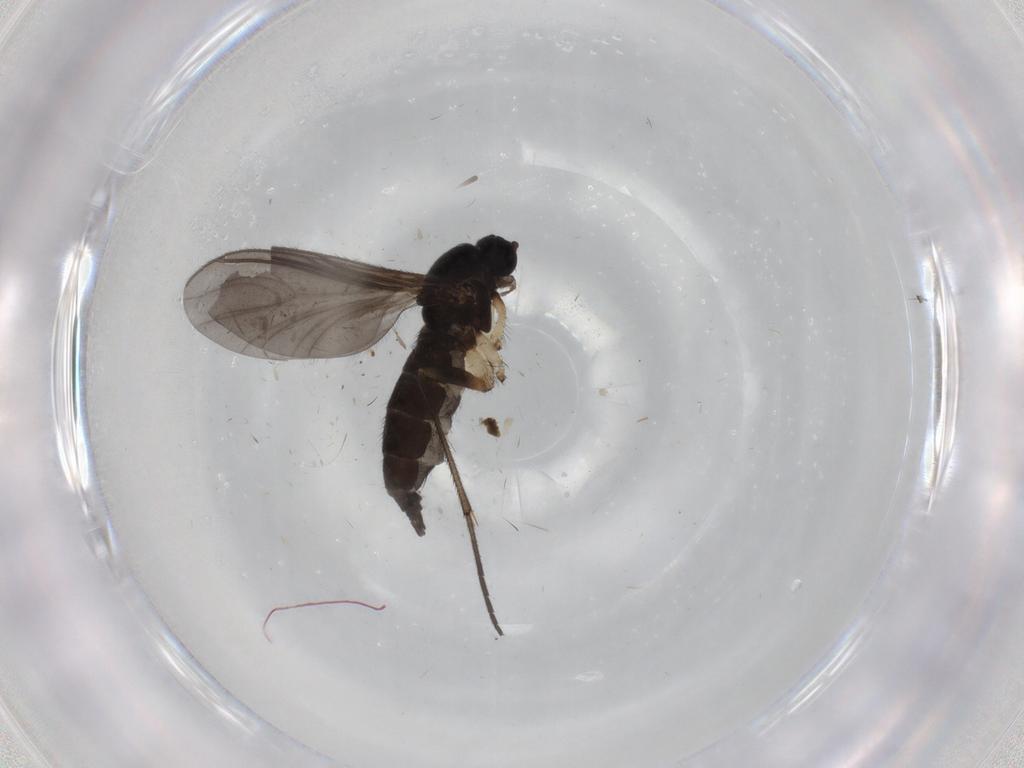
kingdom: Animalia
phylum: Arthropoda
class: Insecta
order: Diptera
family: Sciaridae
